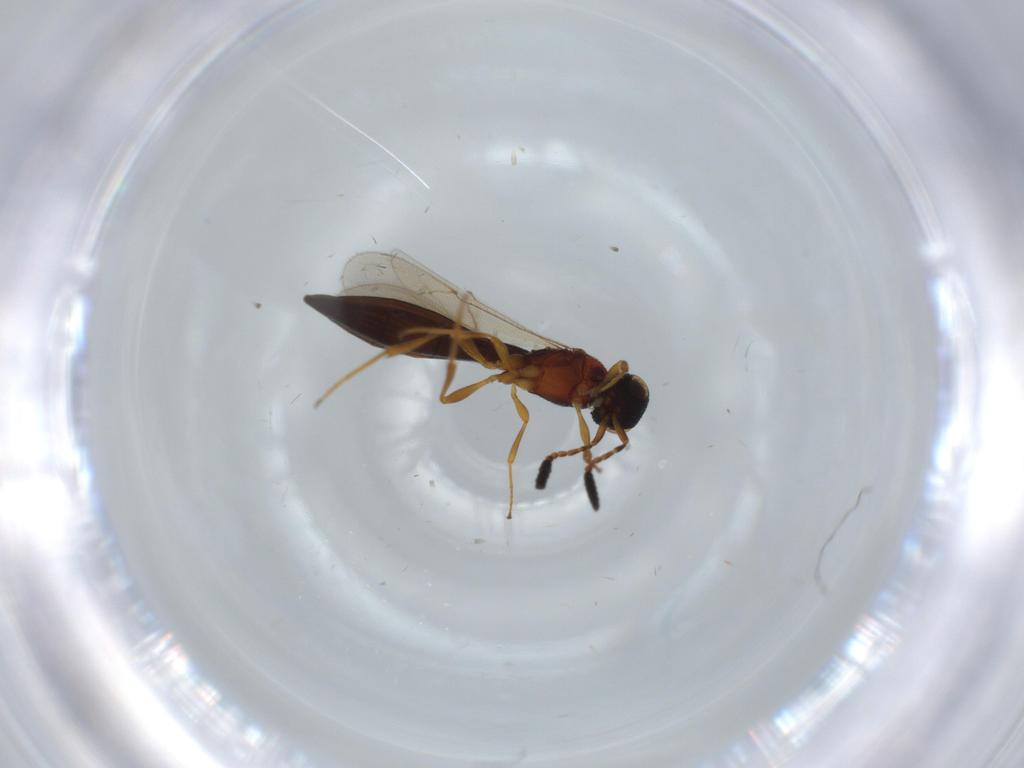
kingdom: Animalia
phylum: Arthropoda
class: Insecta
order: Hymenoptera
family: Scelionidae
